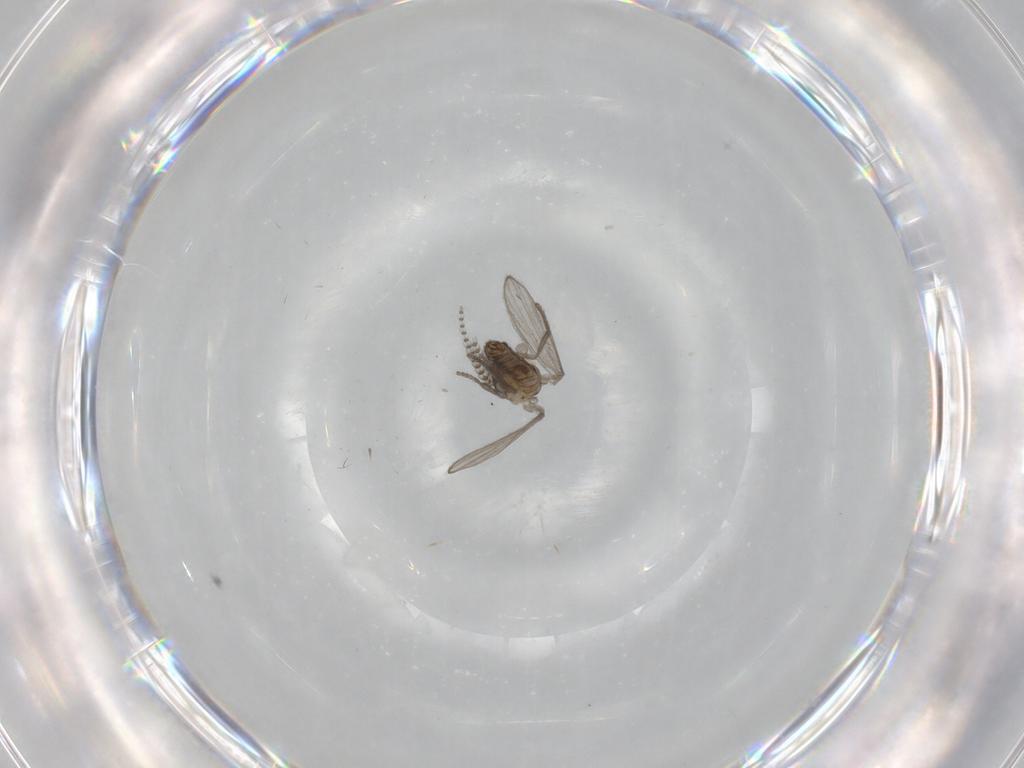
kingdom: Animalia
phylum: Arthropoda
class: Insecta
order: Diptera
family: Psychodidae
